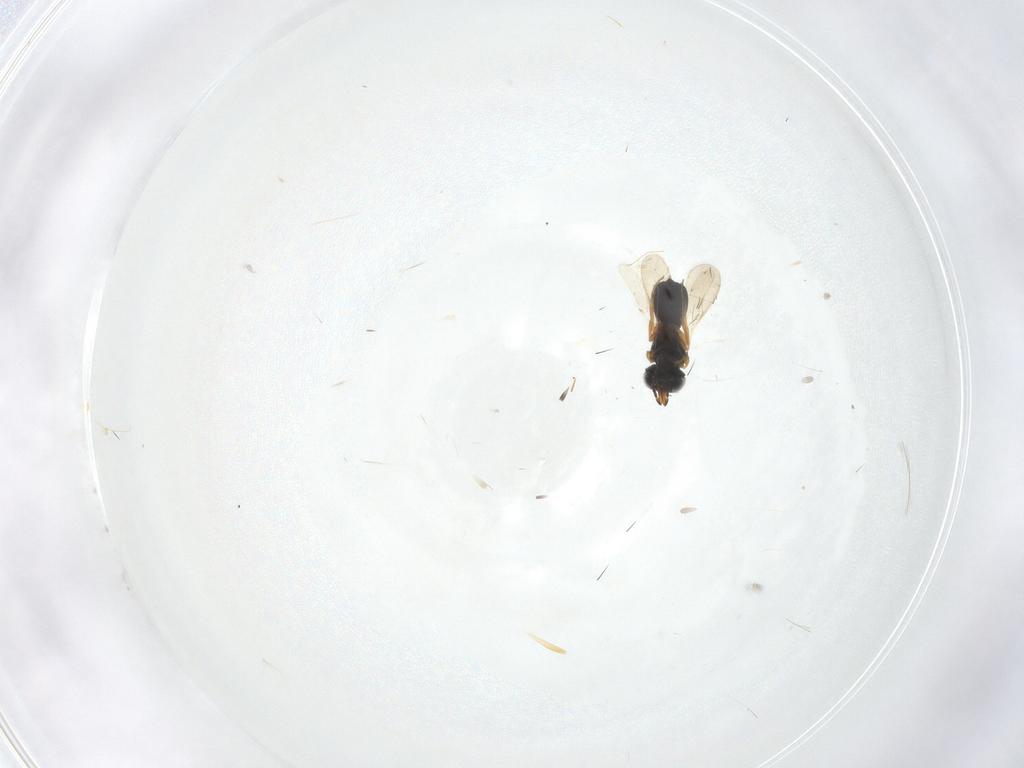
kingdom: Animalia
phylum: Arthropoda
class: Insecta
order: Hymenoptera
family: Scelionidae
